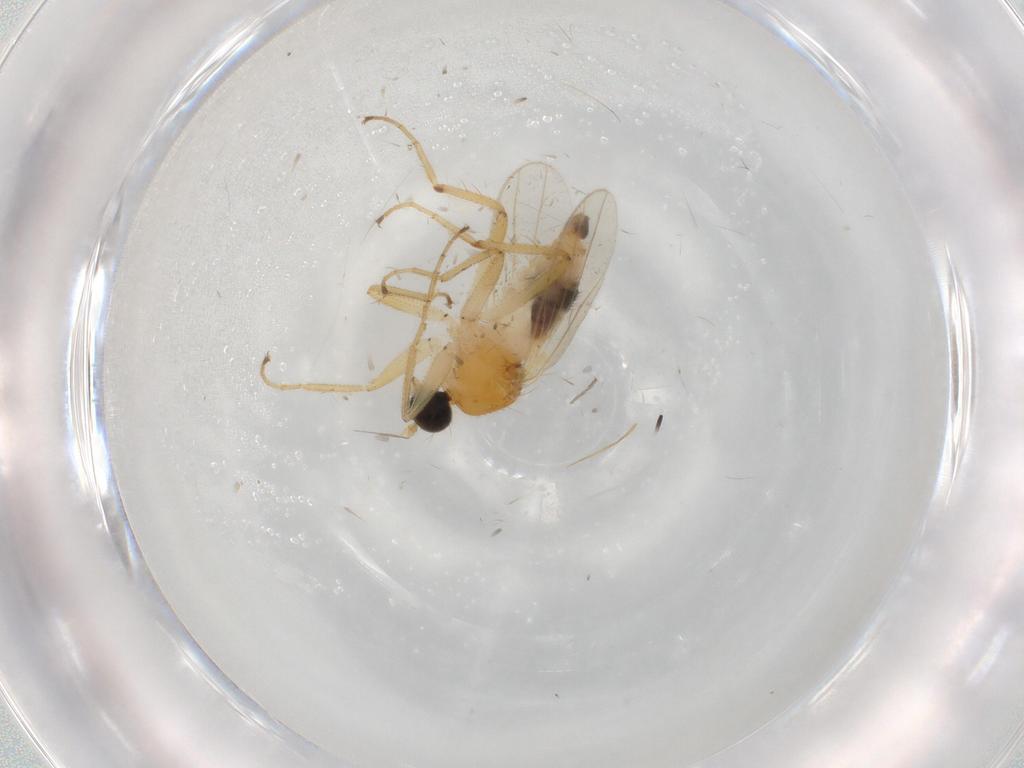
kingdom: Animalia
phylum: Arthropoda
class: Insecta
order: Diptera
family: Hybotidae
